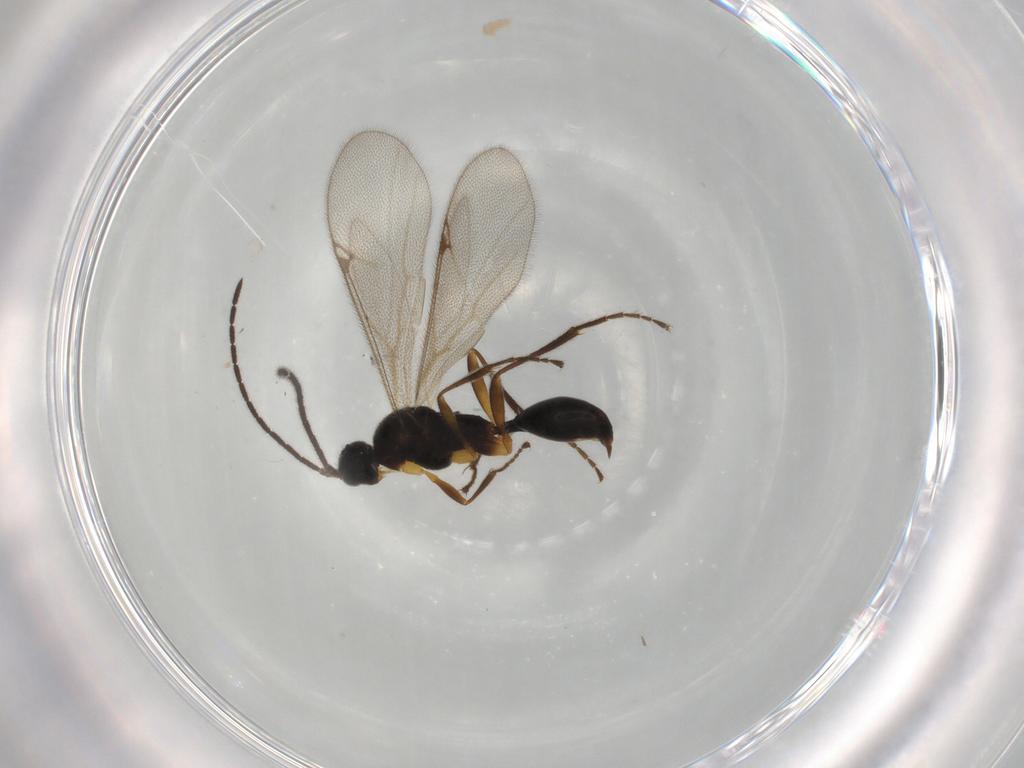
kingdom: Animalia
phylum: Arthropoda
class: Insecta
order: Hymenoptera
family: Proctotrupidae
